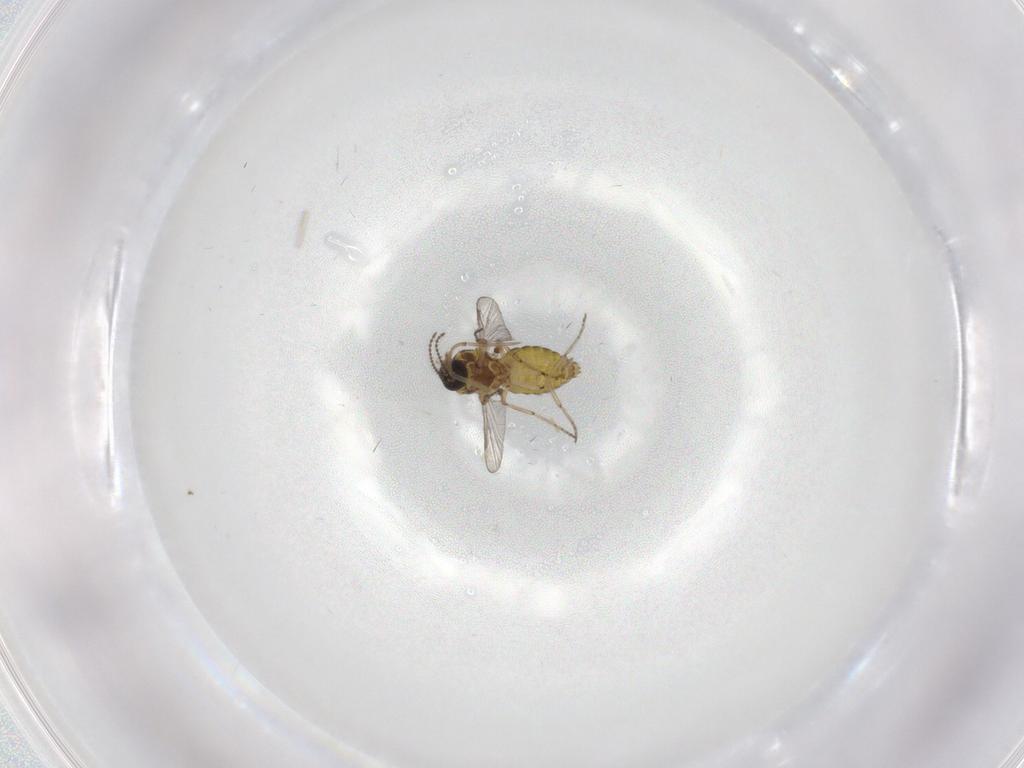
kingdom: Animalia
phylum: Arthropoda
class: Insecta
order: Diptera
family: Ceratopogonidae
